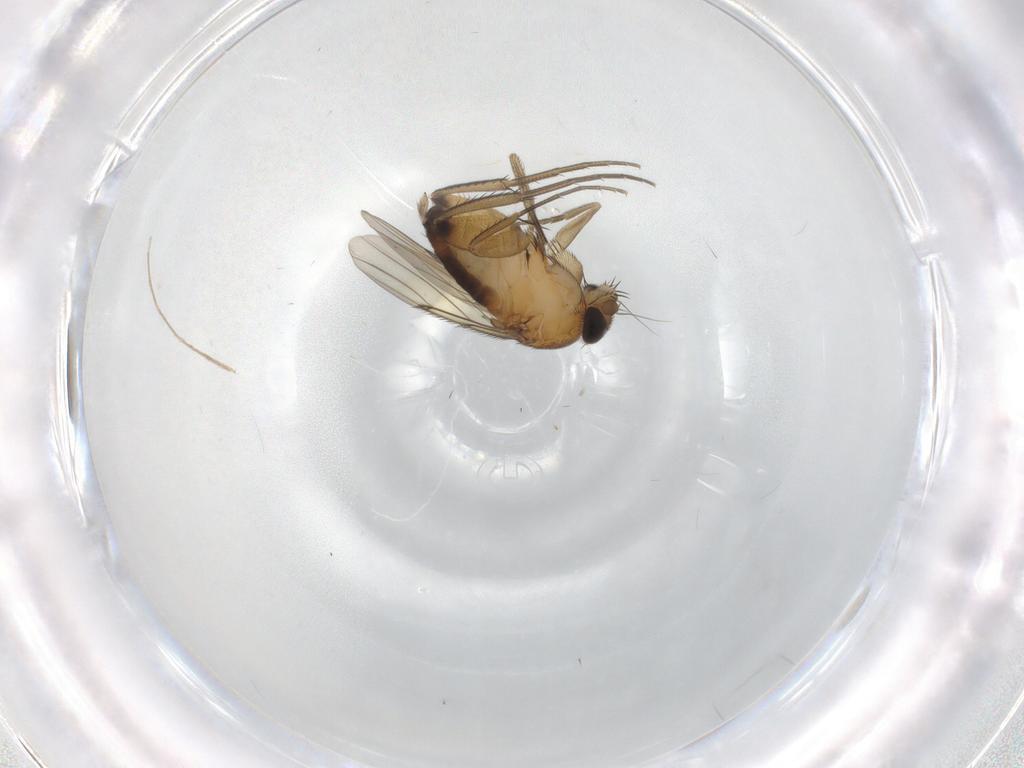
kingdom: Animalia
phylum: Arthropoda
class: Insecta
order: Diptera
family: Phoridae
